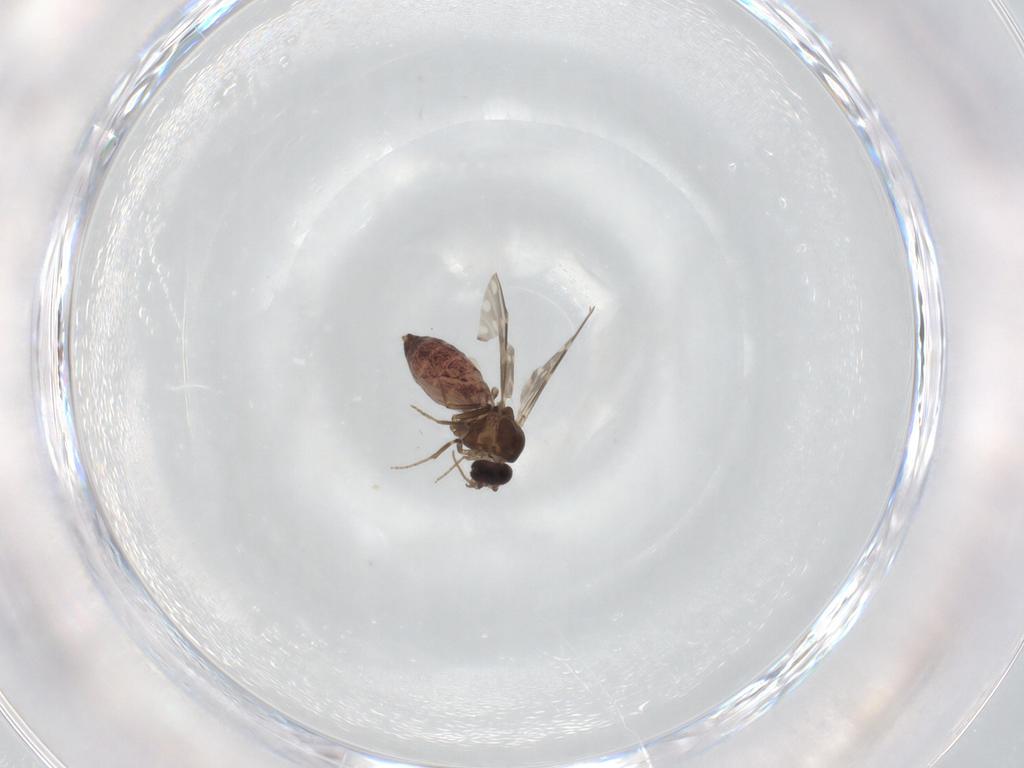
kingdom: Animalia
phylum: Arthropoda
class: Insecta
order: Diptera
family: Ceratopogonidae
